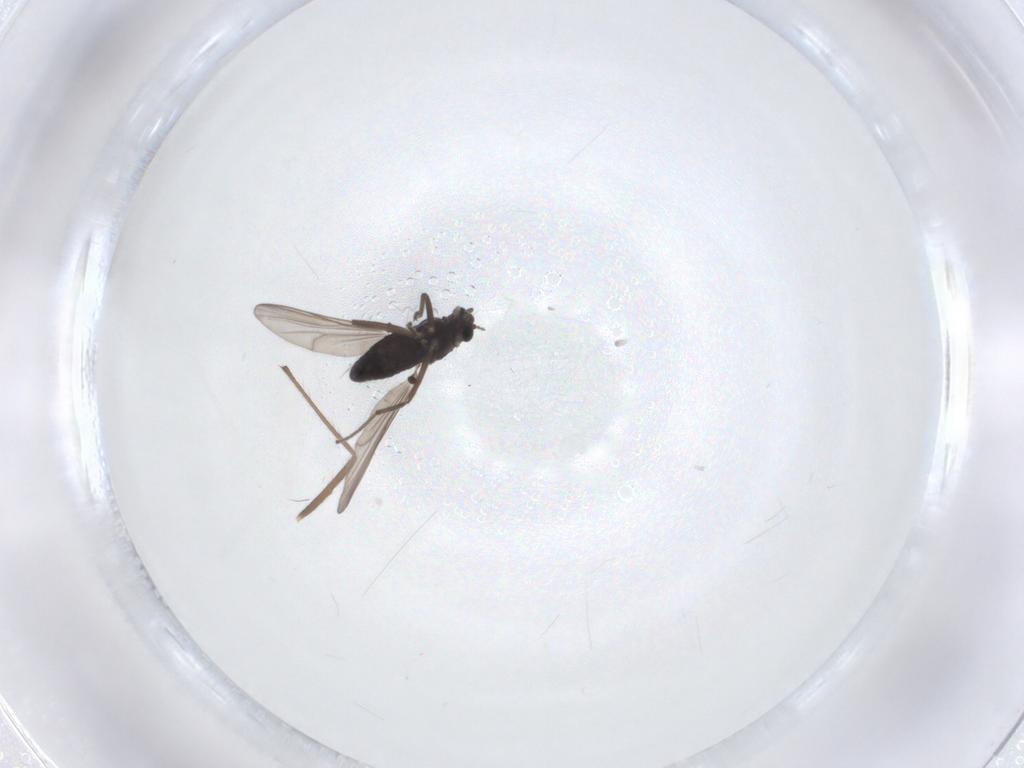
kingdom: Animalia
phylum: Arthropoda
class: Insecta
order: Diptera
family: Chironomidae
